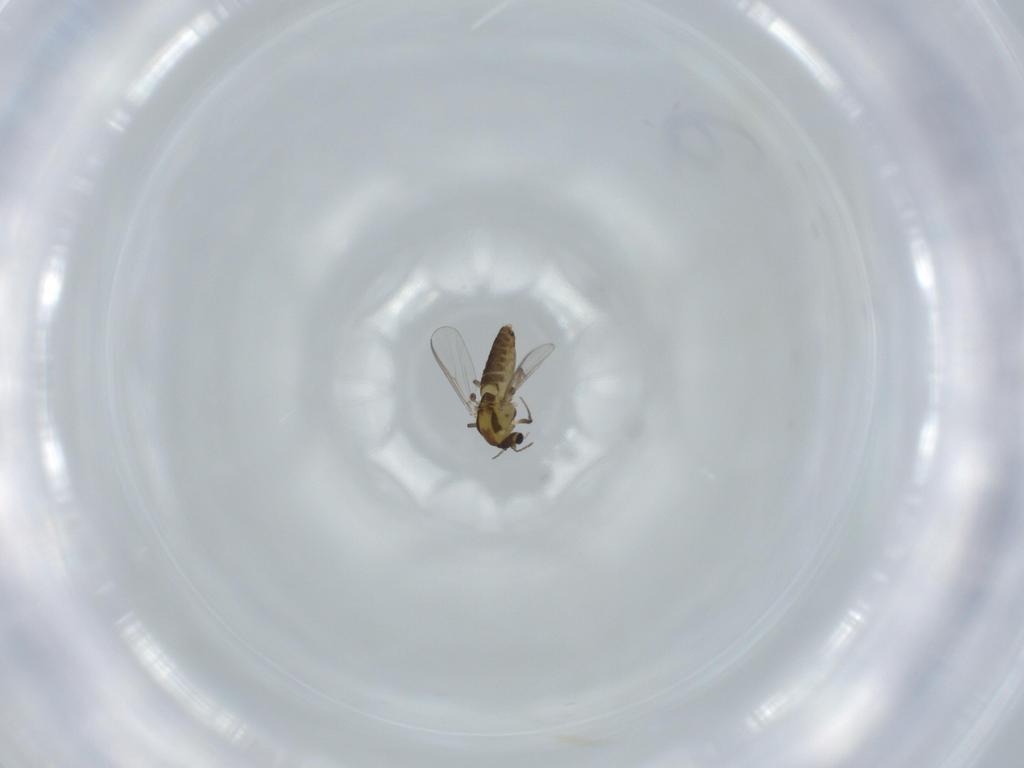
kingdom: Animalia
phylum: Arthropoda
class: Insecta
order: Diptera
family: Chironomidae
